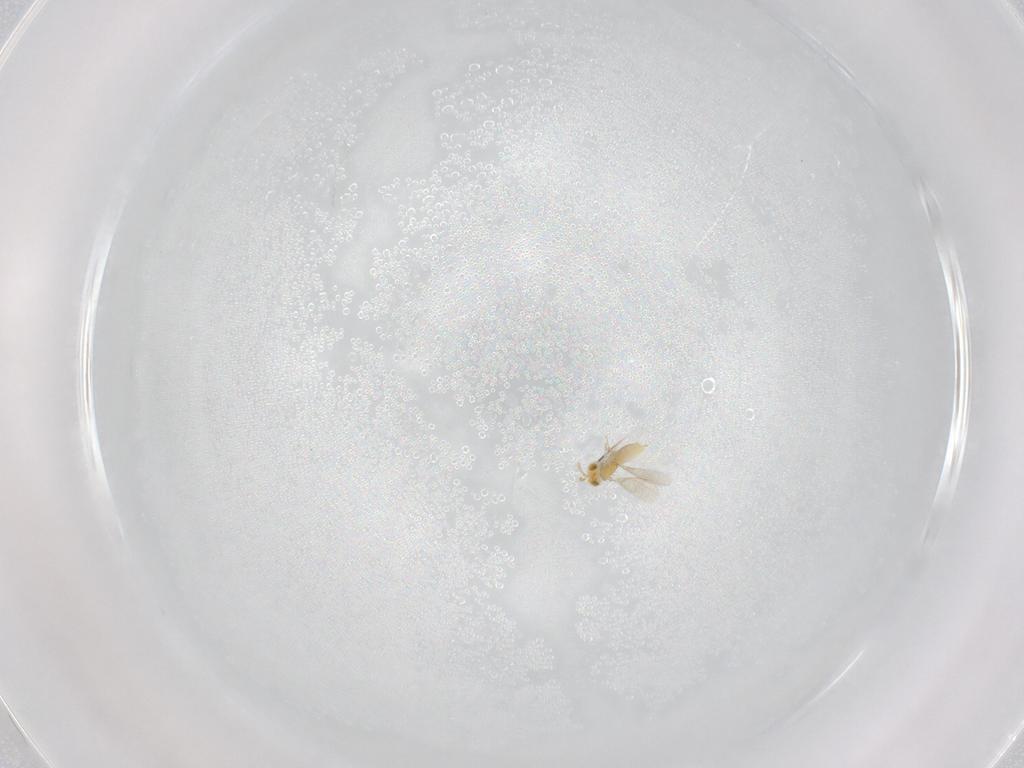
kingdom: Animalia
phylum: Arthropoda
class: Insecta
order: Hymenoptera
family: Aphelinidae
